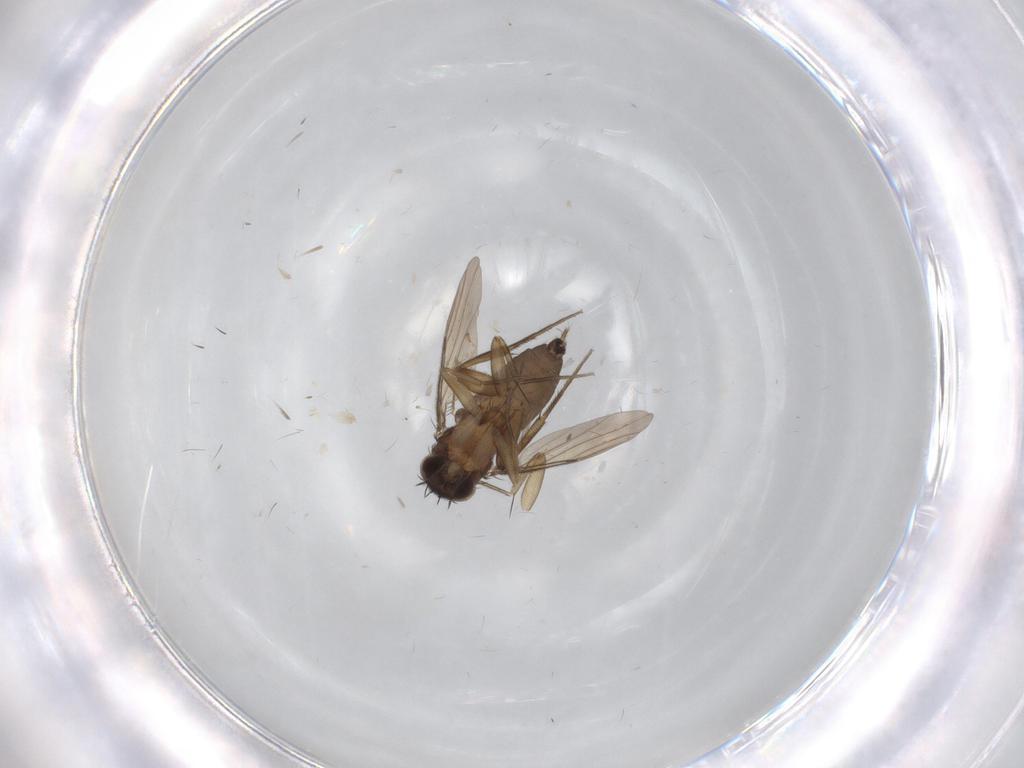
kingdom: Animalia
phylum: Arthropoda
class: Insecta
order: Diptera
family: Phoridae
